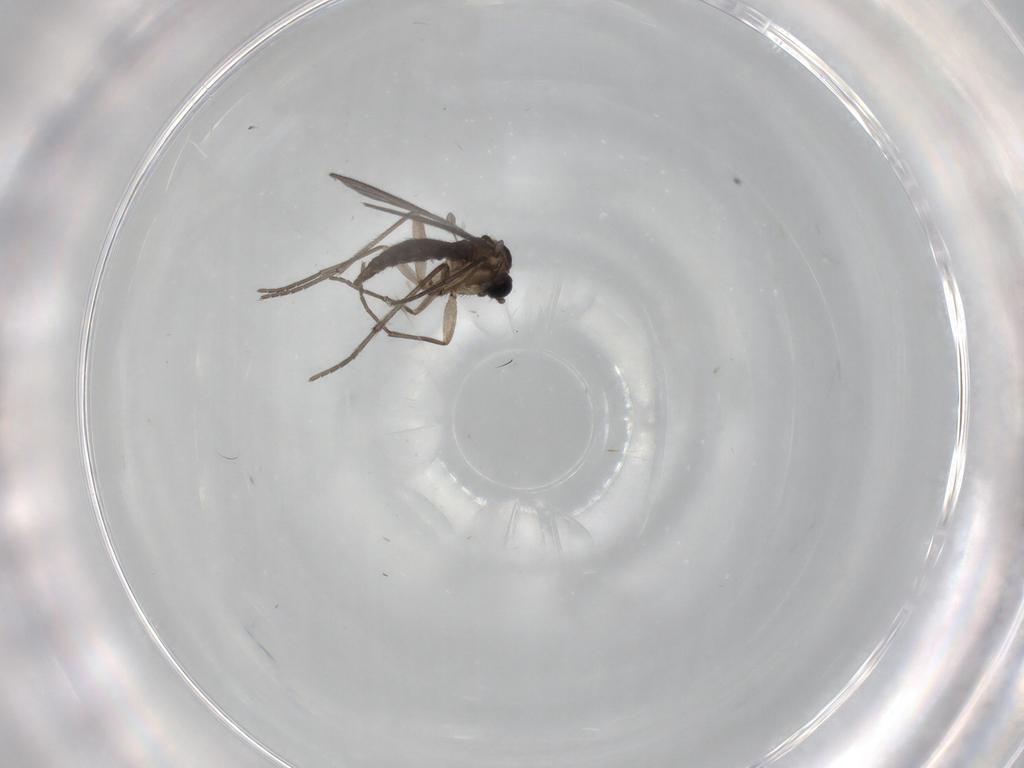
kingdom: Animalia
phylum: Arthropoda
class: Insecta
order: Diptera
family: Sciaridae
